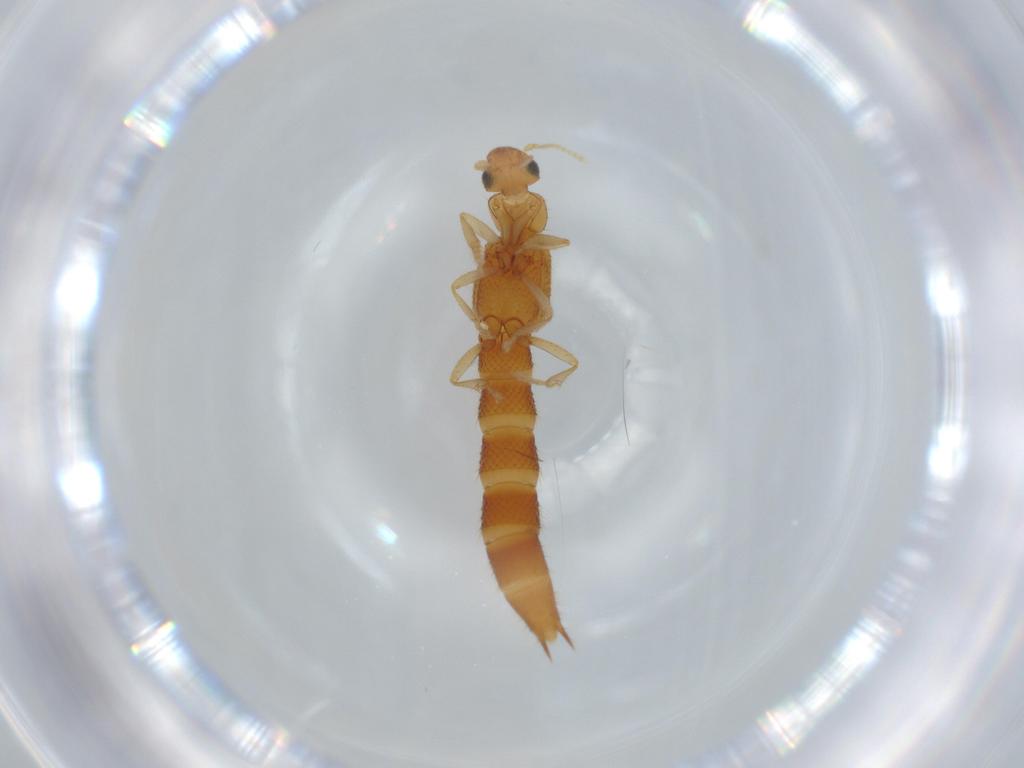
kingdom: Animalia
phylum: Arthropoda
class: Insecta
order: Coleoptera
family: Staphylinidae
